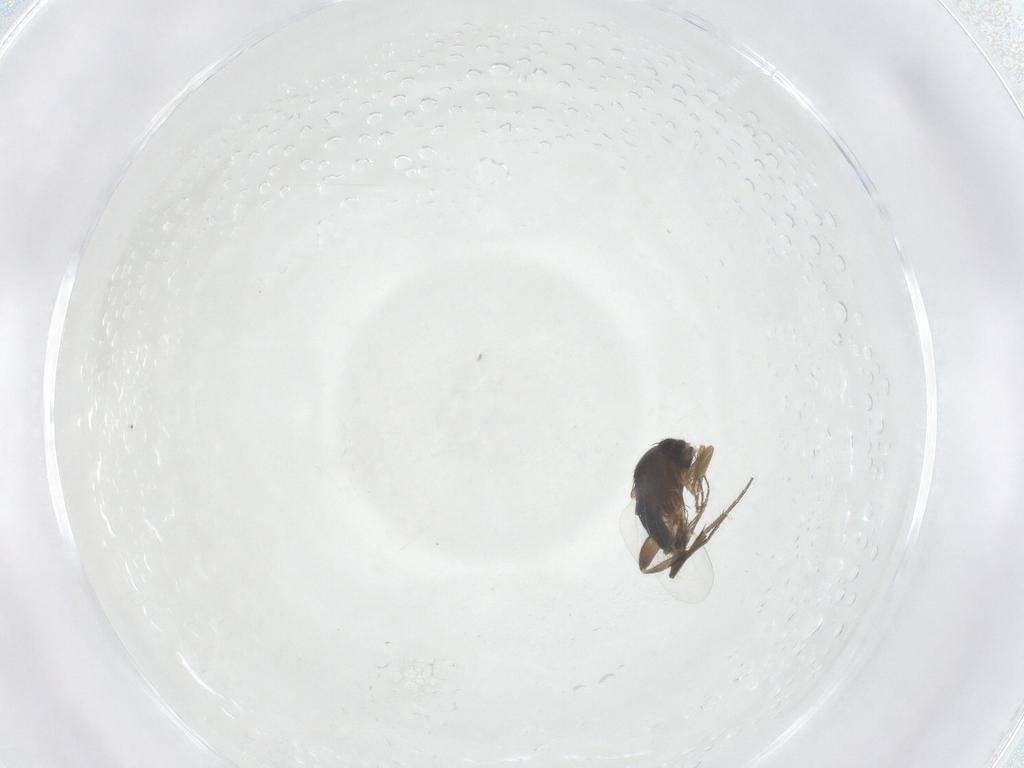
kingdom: Animalia
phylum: Arthropoda
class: Insecta
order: Diptera
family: Phoridae
